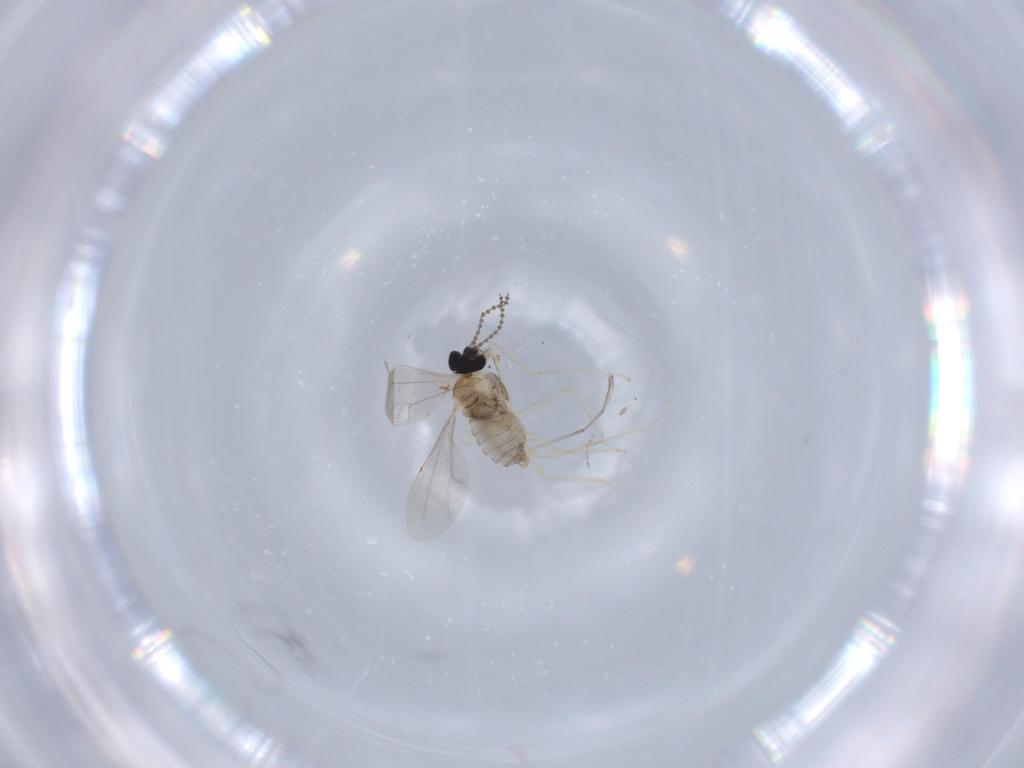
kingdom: Animalia
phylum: Arthropoda
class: Insecta
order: Diptera
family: Cecidomyiidae
